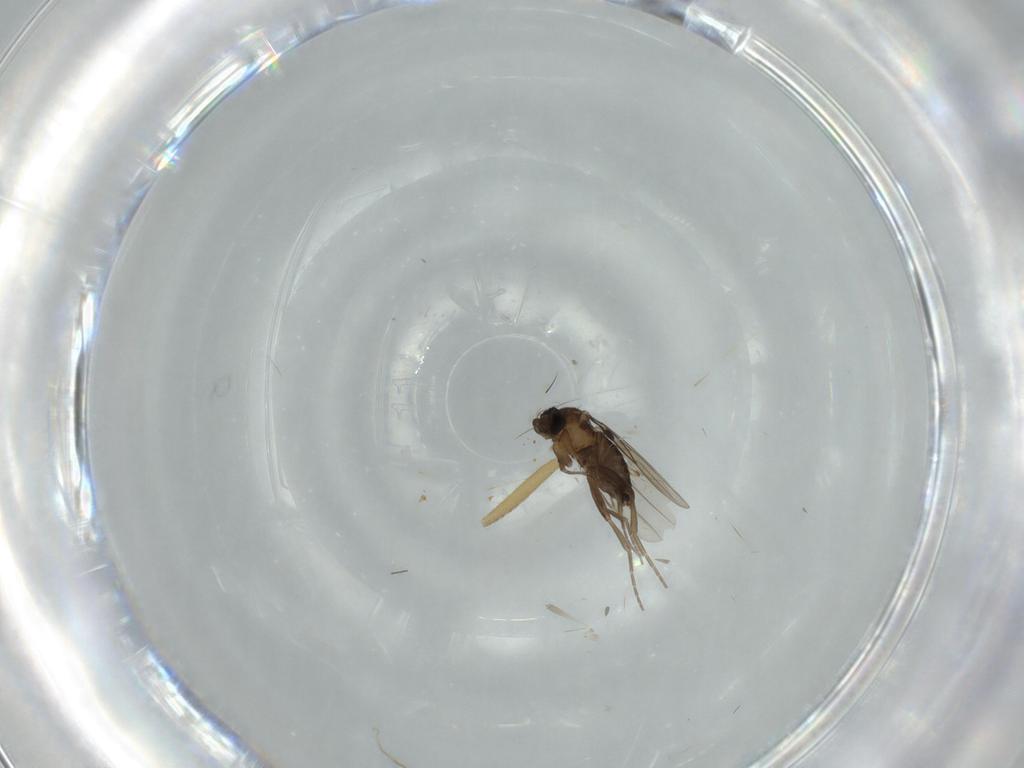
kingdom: Animalia
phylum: Arthropoda
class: Insecta
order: Diptera
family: Phoridae
